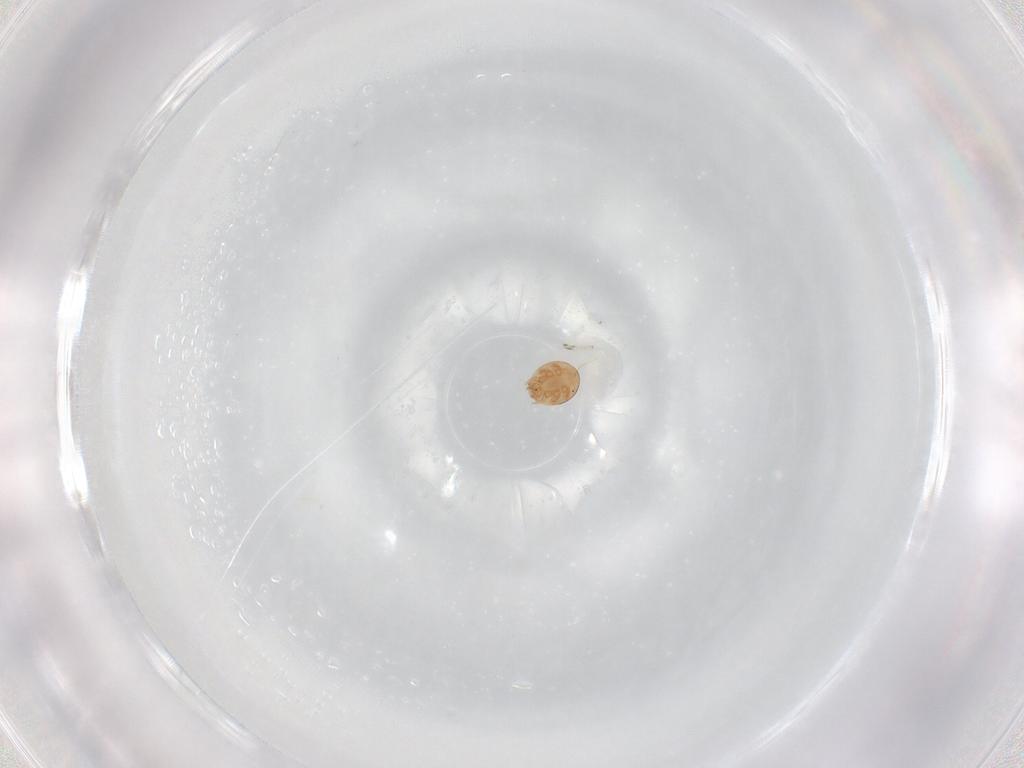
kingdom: Animalia
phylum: Arthropoda
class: Arachnida
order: Mesostigmata
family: Trematuridae
